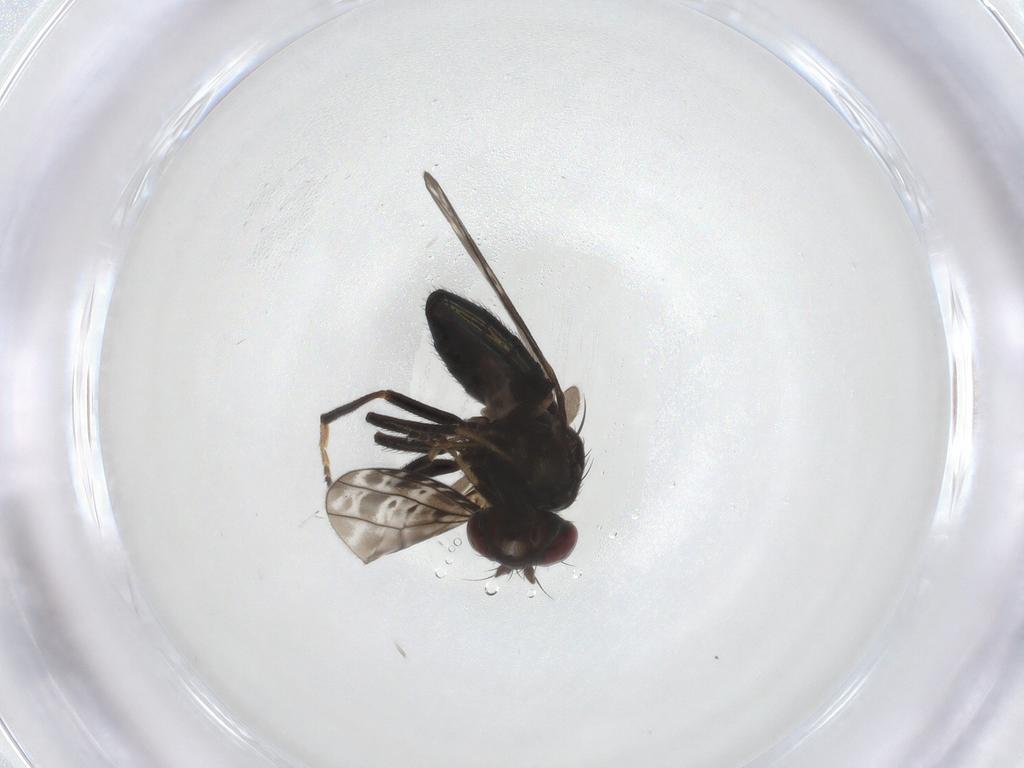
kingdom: Animalia
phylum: Arthropoda
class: Insecta
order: Diptera
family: Ephydridae
